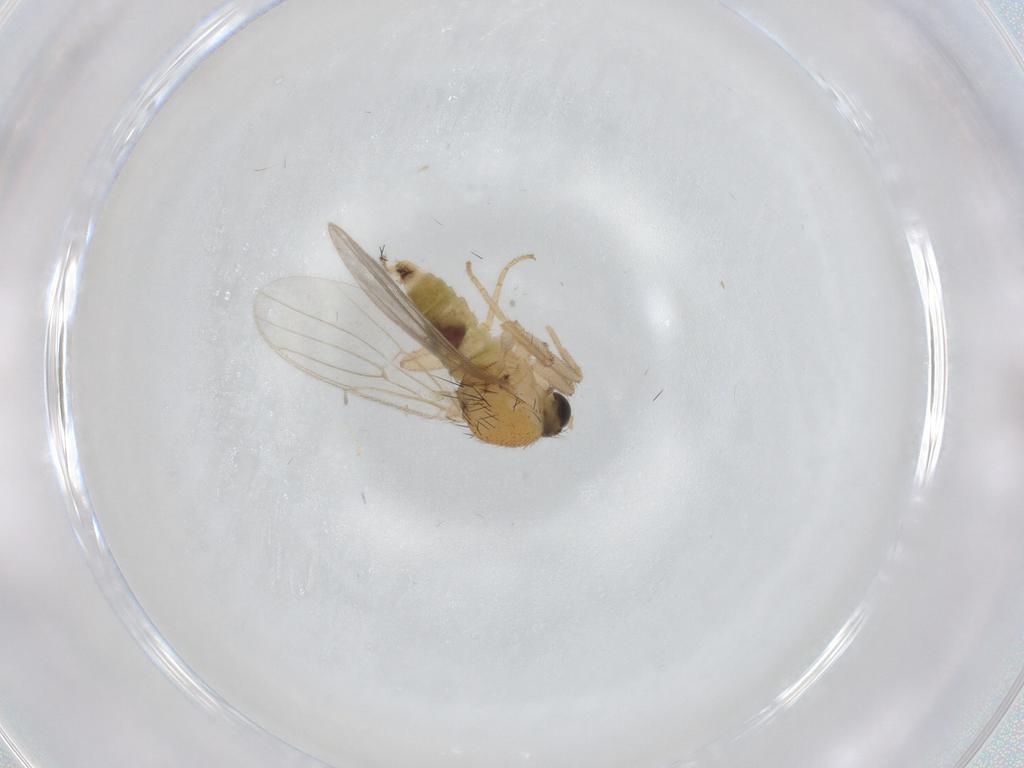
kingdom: Animalia
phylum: Arthropoda
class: Insecta
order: Diptera
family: Hybotidae
